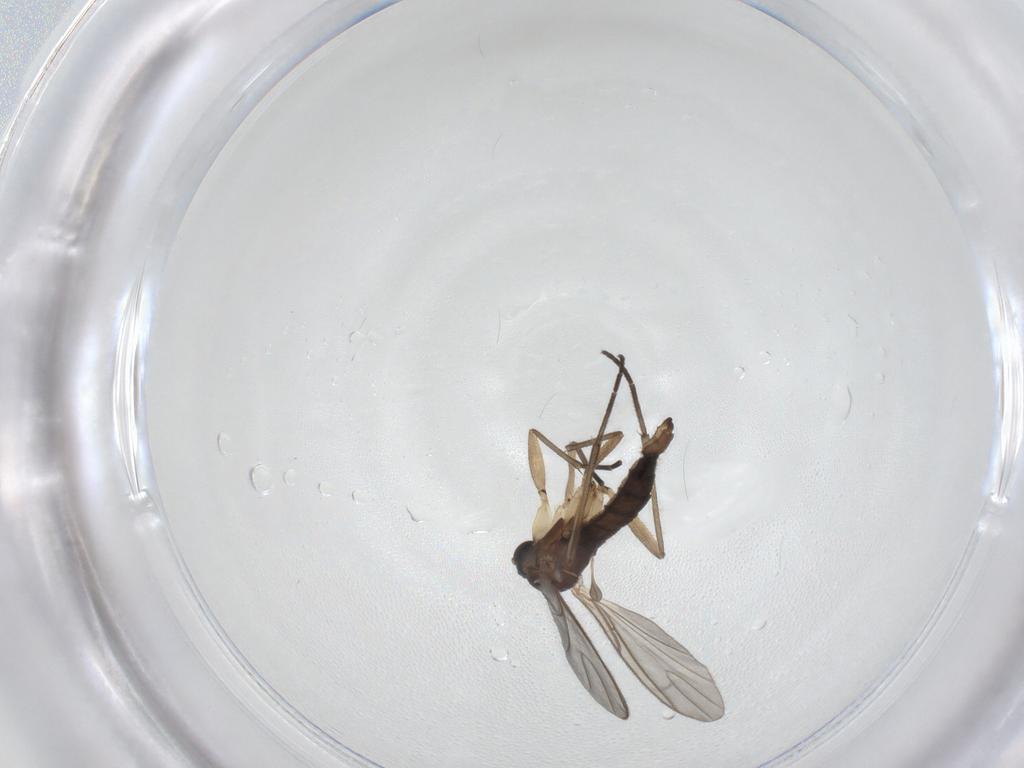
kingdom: Animalia
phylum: Arthropoda
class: Insecta
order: Diptera
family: Sciaridae
